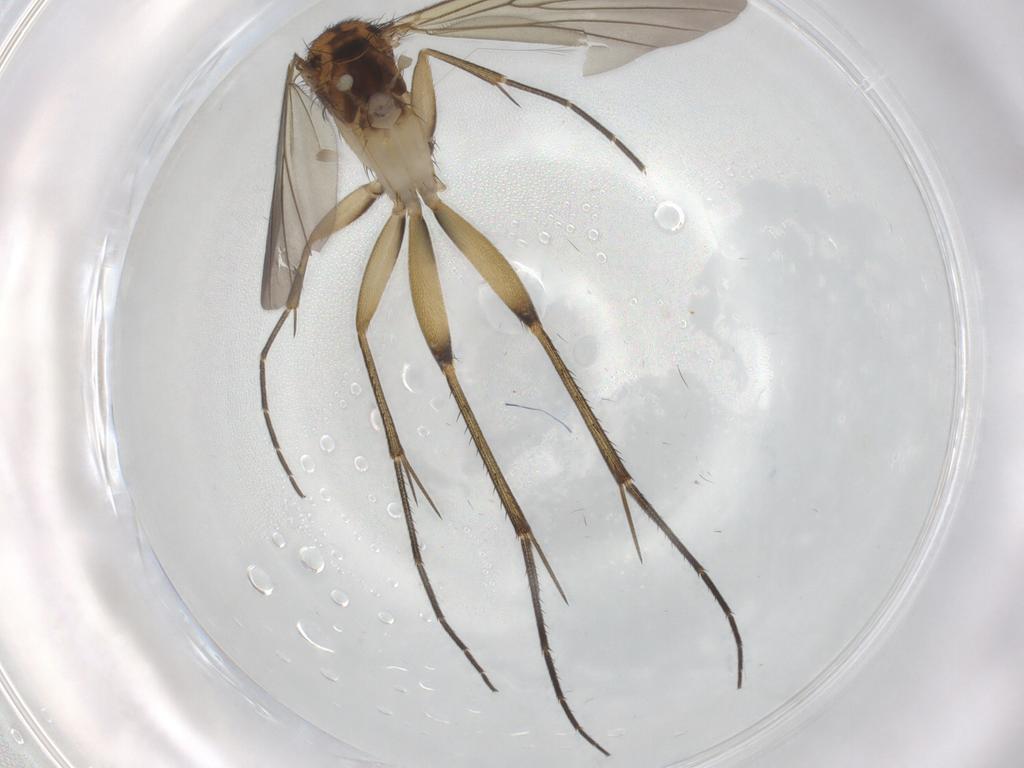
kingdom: Animalia
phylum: Arthropoda
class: Insecta
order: Diptera
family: Mycetophilidae
